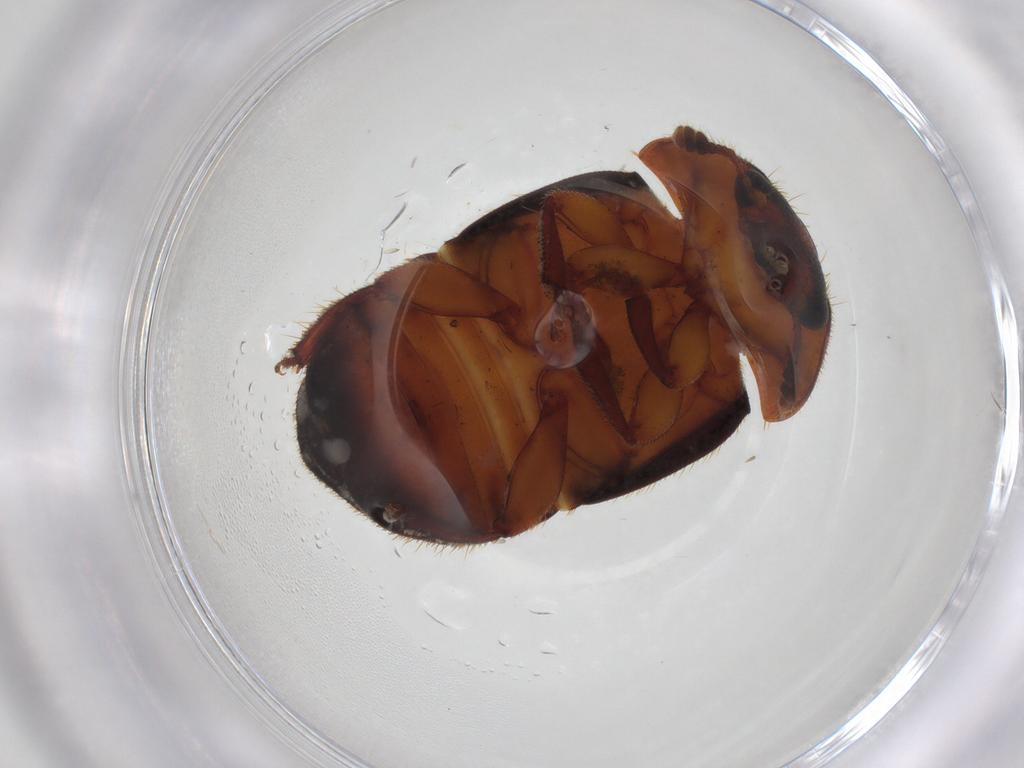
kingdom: Animalia
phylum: Arthropoda
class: Insecta
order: Coleoptera
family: Nitidulidae
